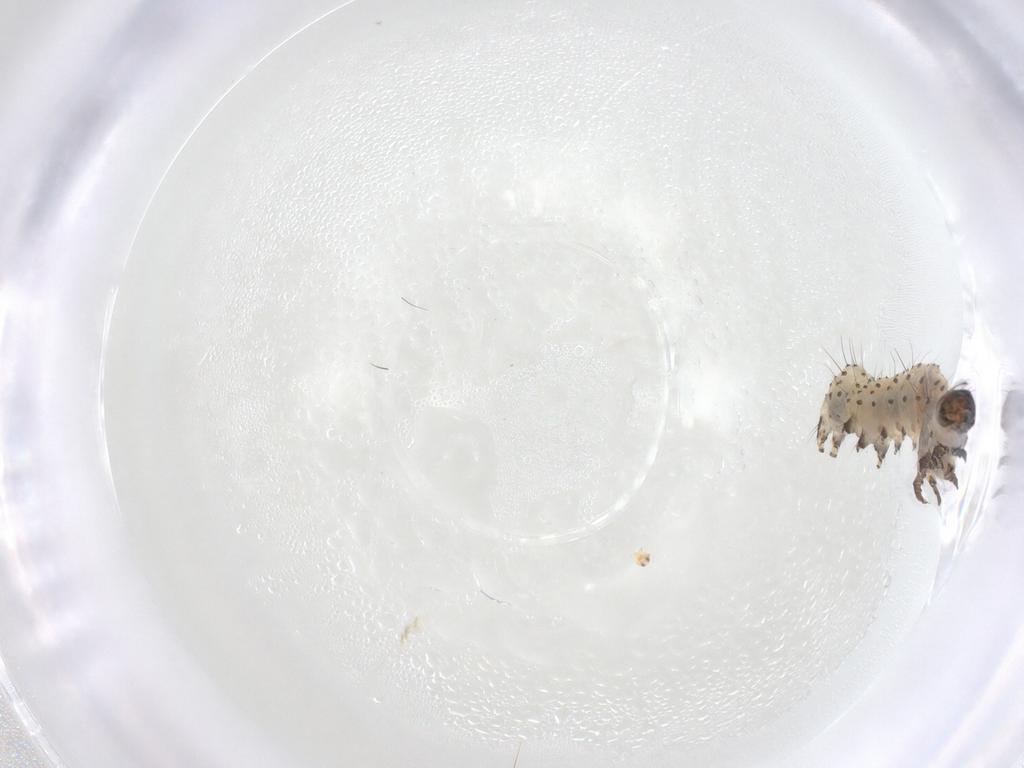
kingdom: Animalia
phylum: Arthropoda
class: Insecta
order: Lepidoptera
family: Noctuidae
